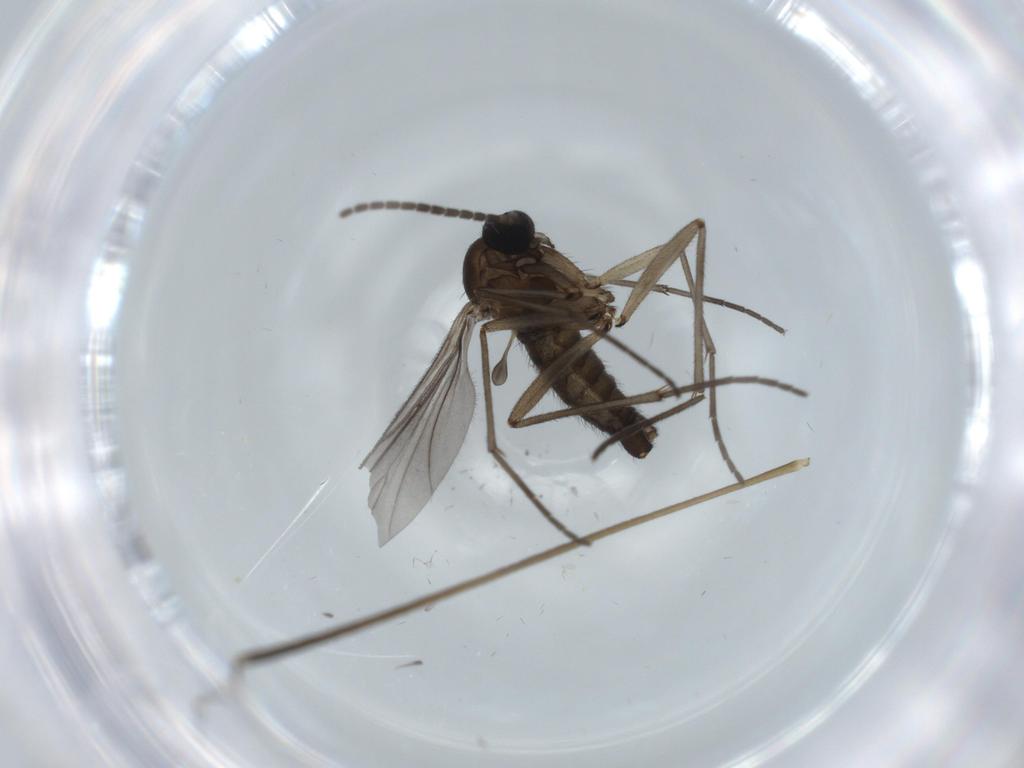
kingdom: Animalia
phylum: Arthropoda
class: Insecta
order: Diptera
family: Sciaridae
